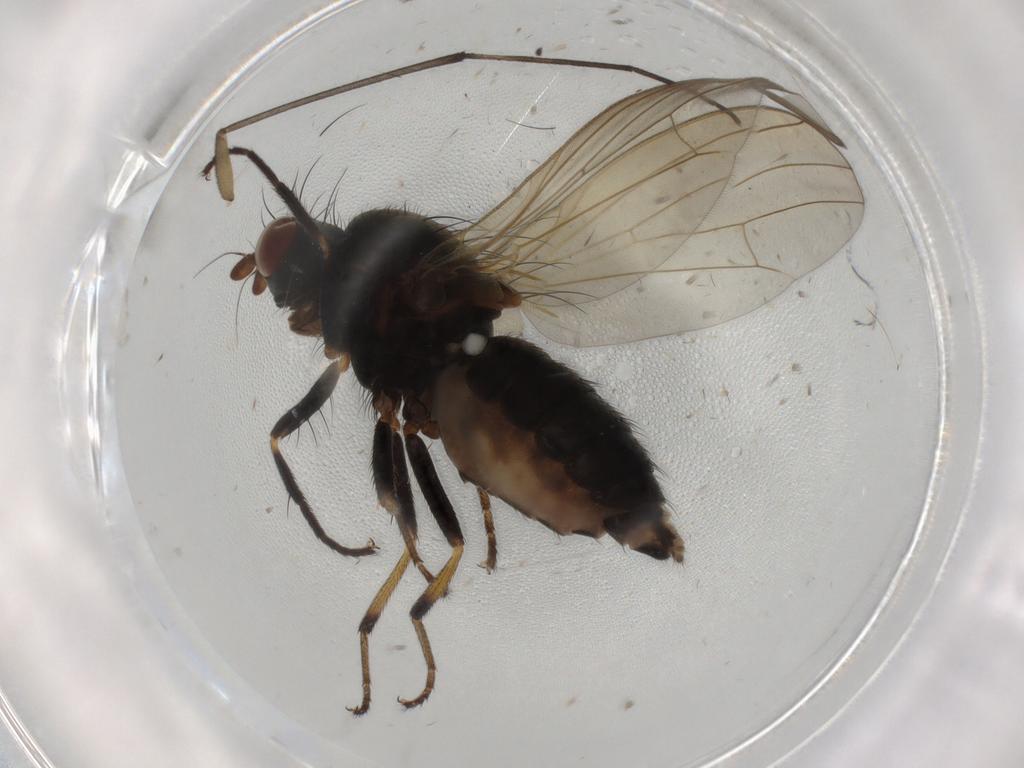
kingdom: Animalia
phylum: Arthropoda
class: Insecta
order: Diptera
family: Lauxaniidae
